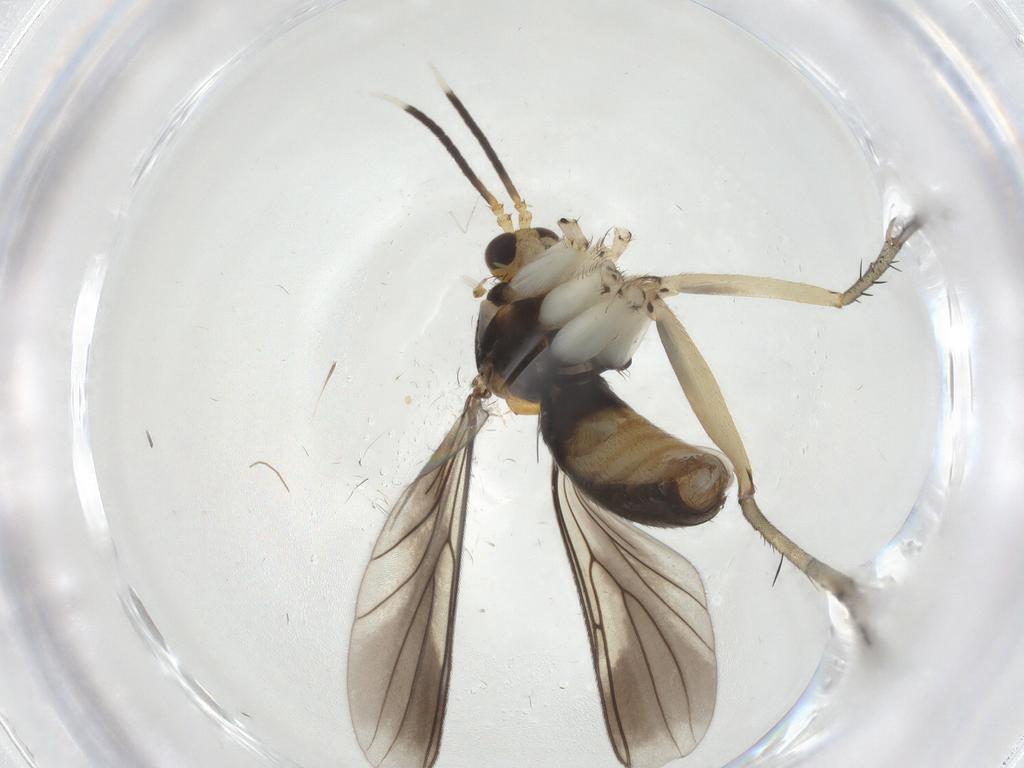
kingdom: Animalia
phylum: Arthropoda
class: Insecta
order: Diptera
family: Mycetophilidae
